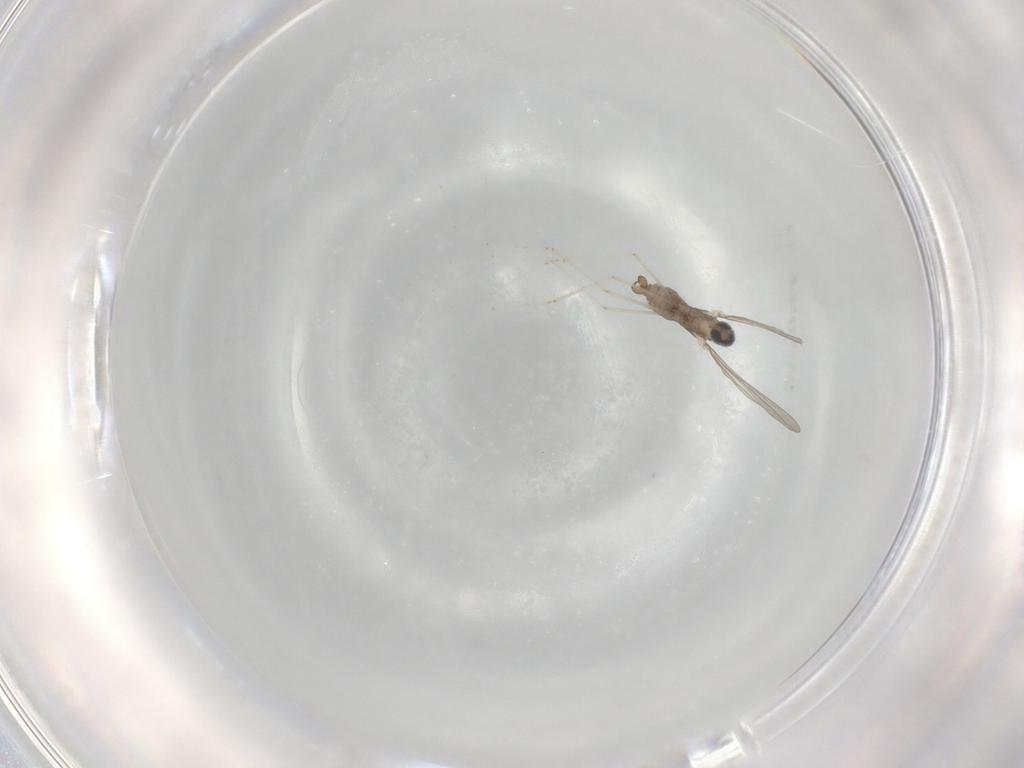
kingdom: Animalia
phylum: Arthropoda
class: Insecta
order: Diptera
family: Cecidomyiidae
